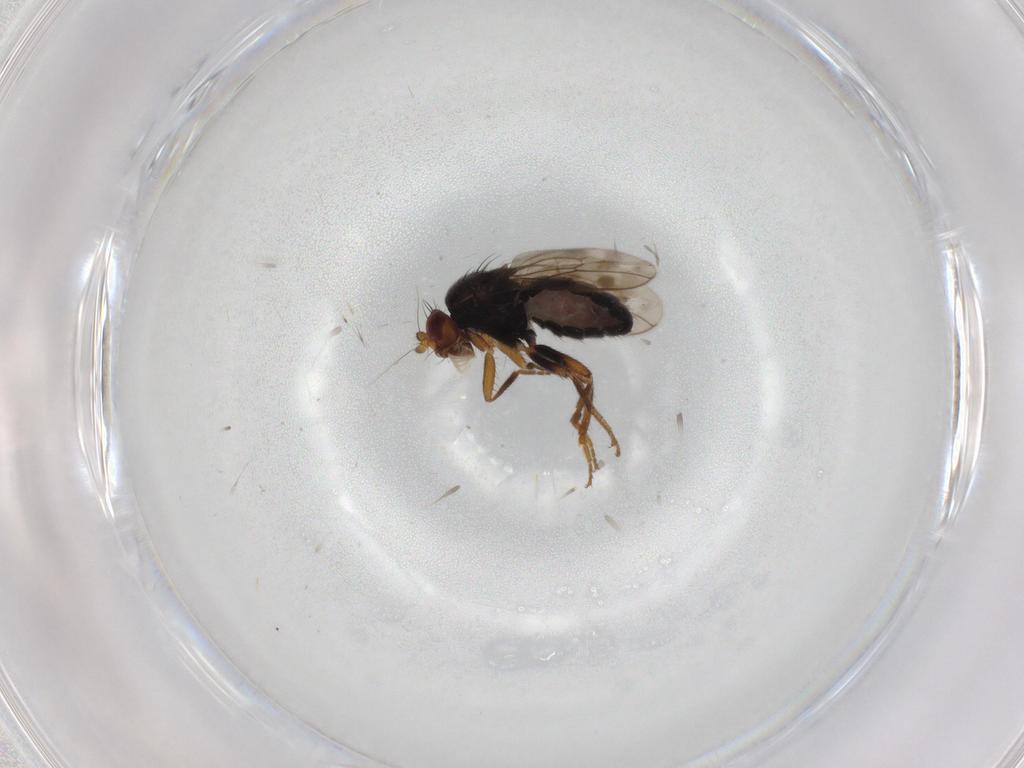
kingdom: Animalia
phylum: Arthropoda
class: Insecta
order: Diptera
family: Sphaeroceridae
